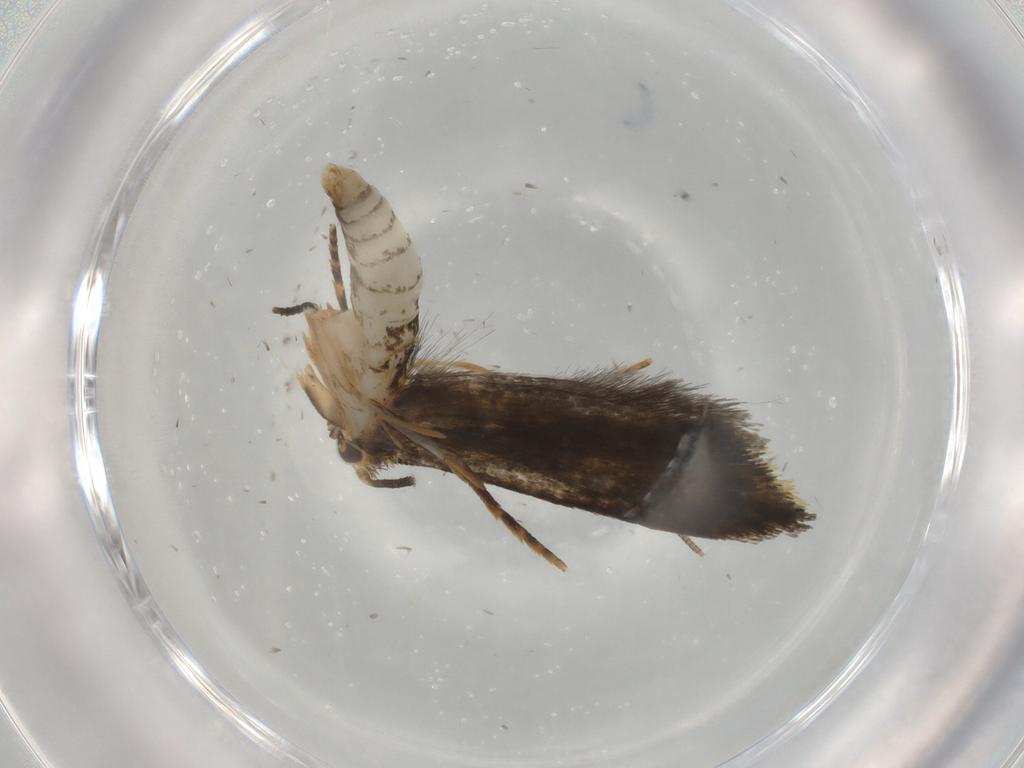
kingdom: Animalia
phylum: Arthropoda
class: Insecta
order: Lepidoptera
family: Tineidae
